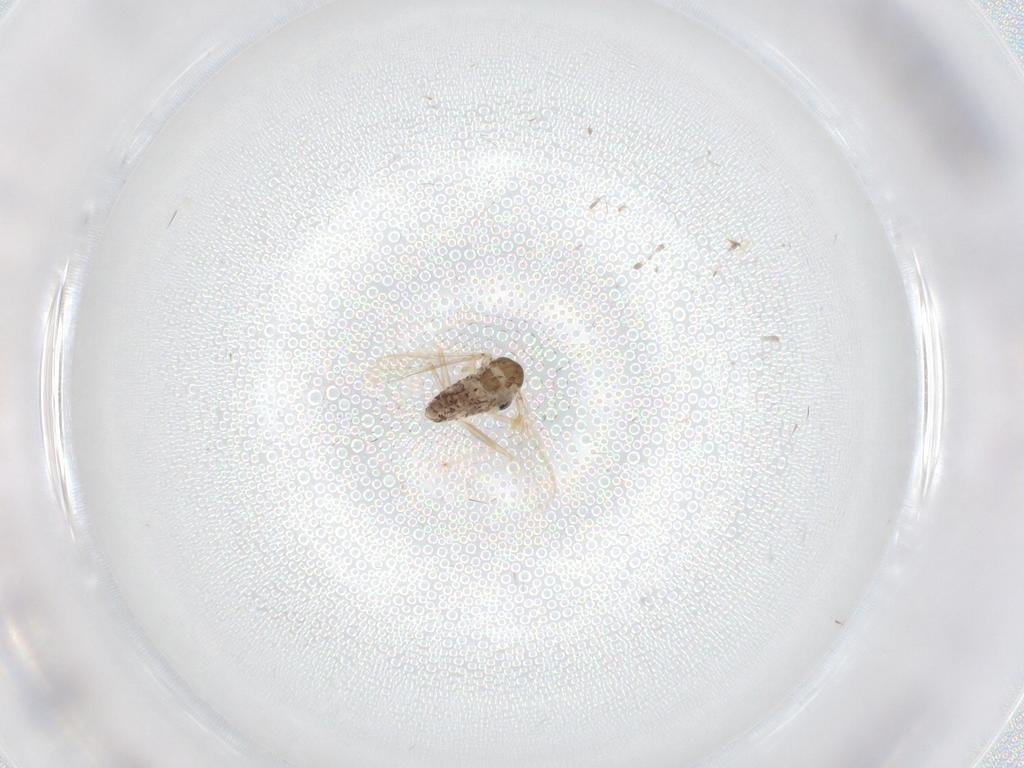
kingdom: Animalia
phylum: Arthropoda
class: Insecta
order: Diptera
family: Chironomidae
